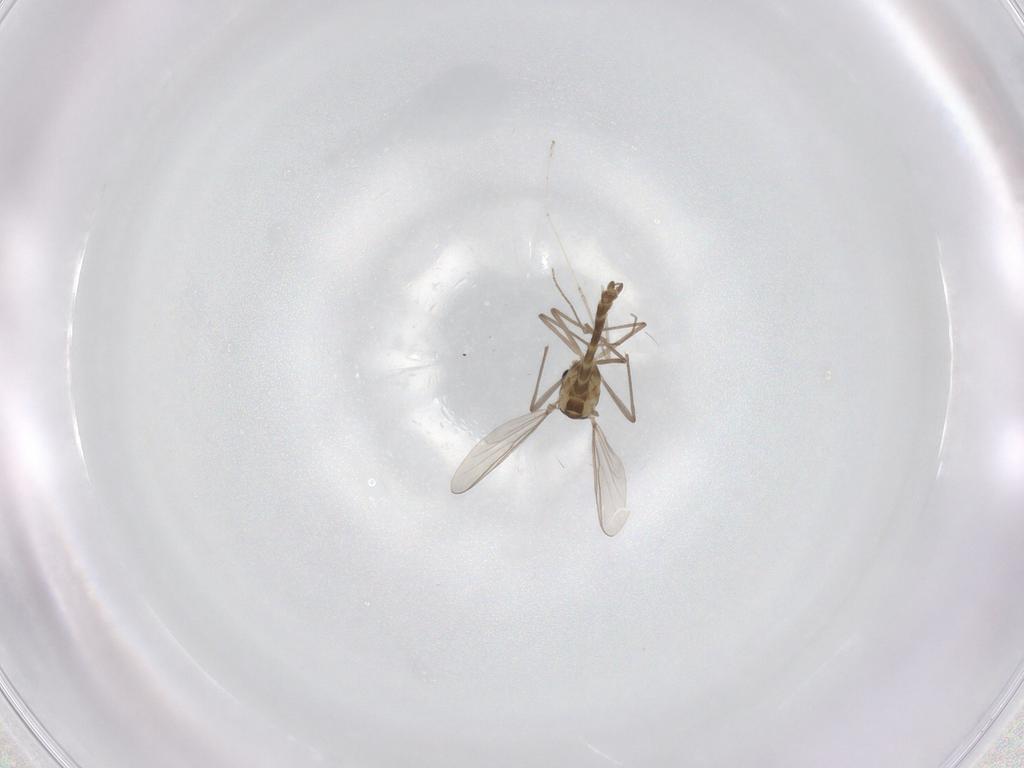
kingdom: Animalia
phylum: Arthropoda
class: Insecta
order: Diptera
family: Chironomidae
